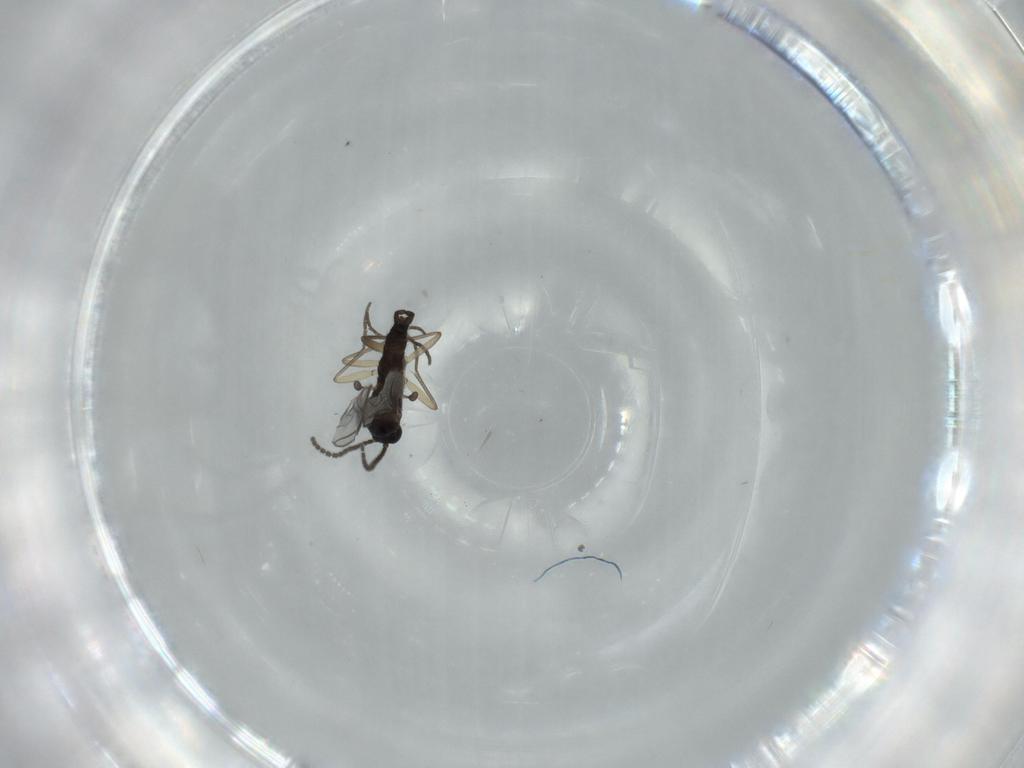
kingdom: Animalia
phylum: Arthropoda
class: Insecta
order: Diptera
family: Sciaridae
